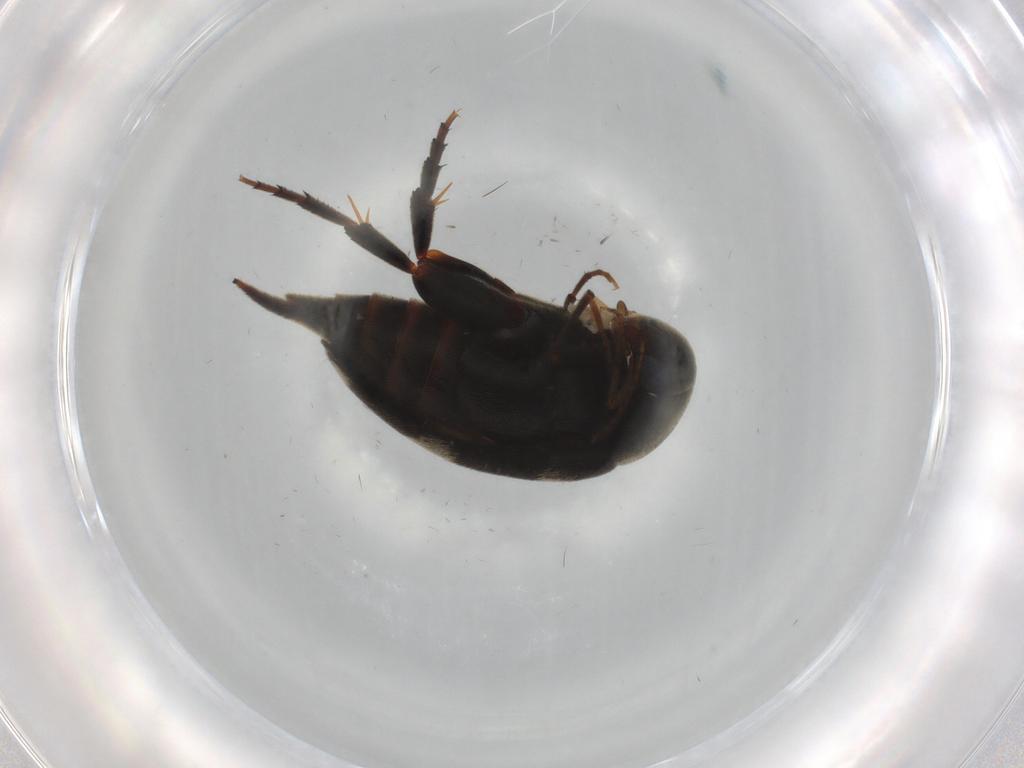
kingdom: Animalia
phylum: Arthropoda
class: Insecta
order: Coleoptera
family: Scirtidae
